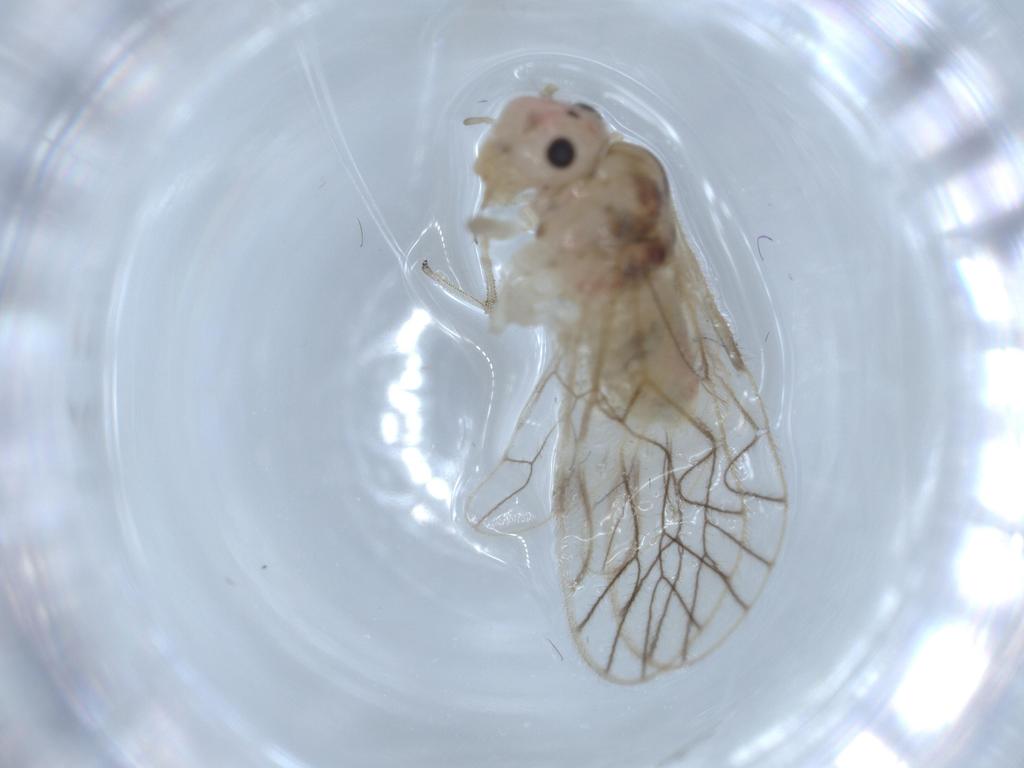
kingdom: Animalia
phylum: Arthropoda
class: Insecta
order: Psocodea
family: Amphipsocidae
